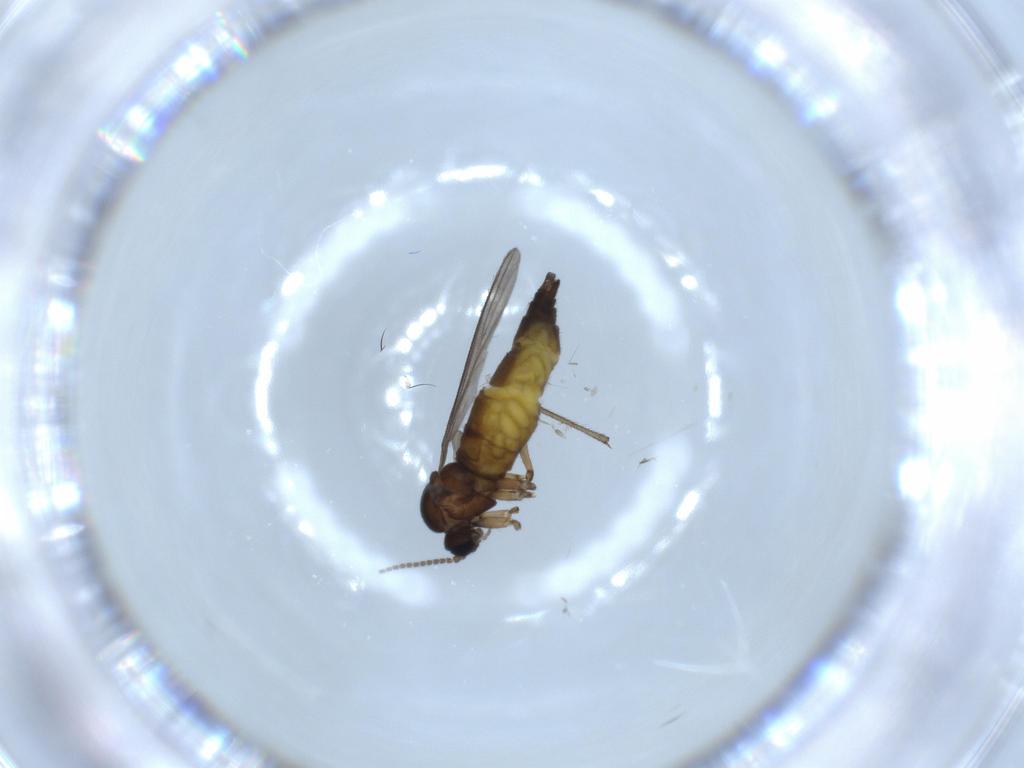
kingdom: Animalia
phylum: Arthropoda
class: Insecta
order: Diptera
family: Sciaridae
